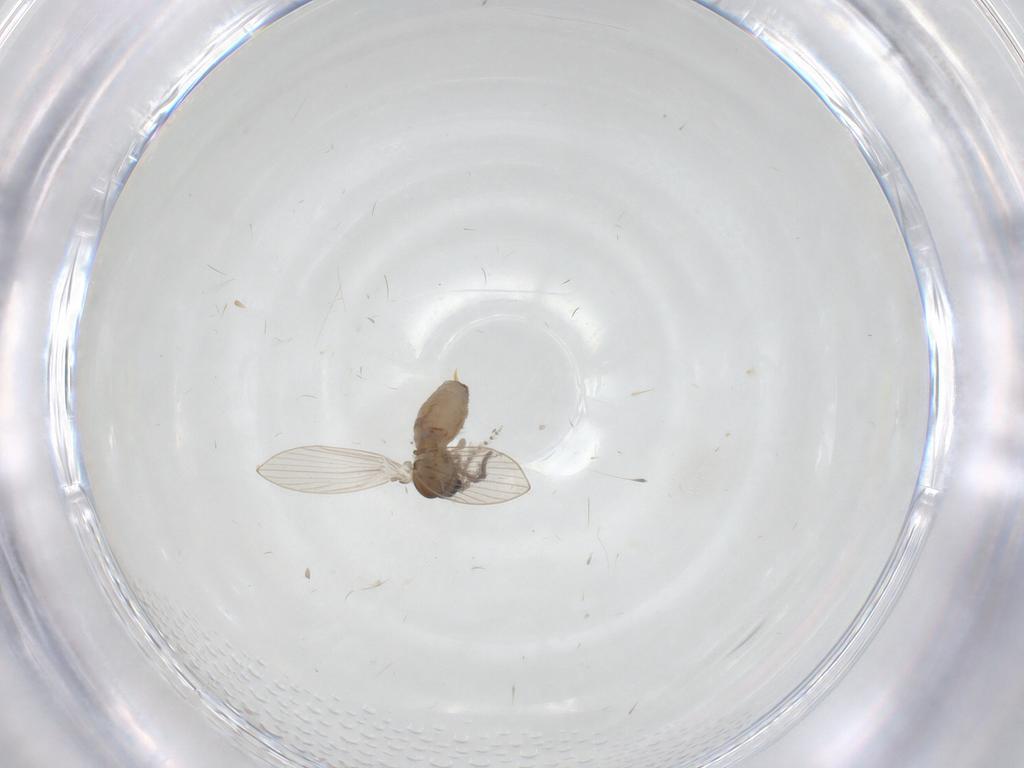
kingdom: Animalia
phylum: Arthropoda
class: Insecta
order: Diptera
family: Psychodidae
